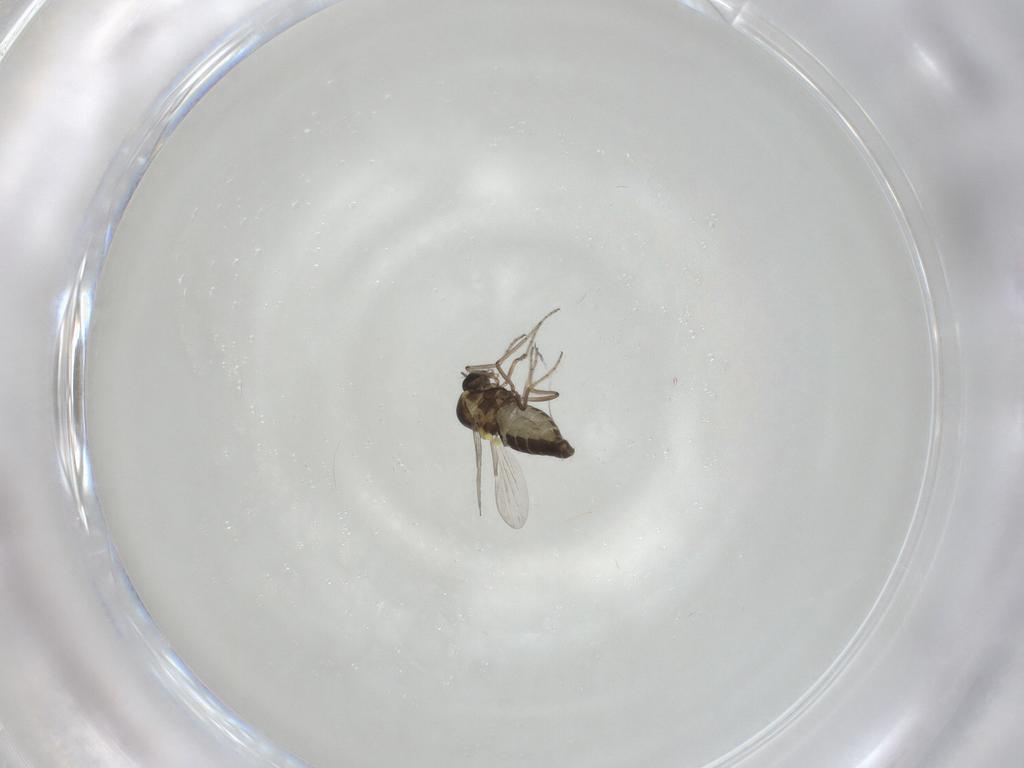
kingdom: Animalia
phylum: Arthropoda
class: Insecta
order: Diptera
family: Ceratopogonidae
